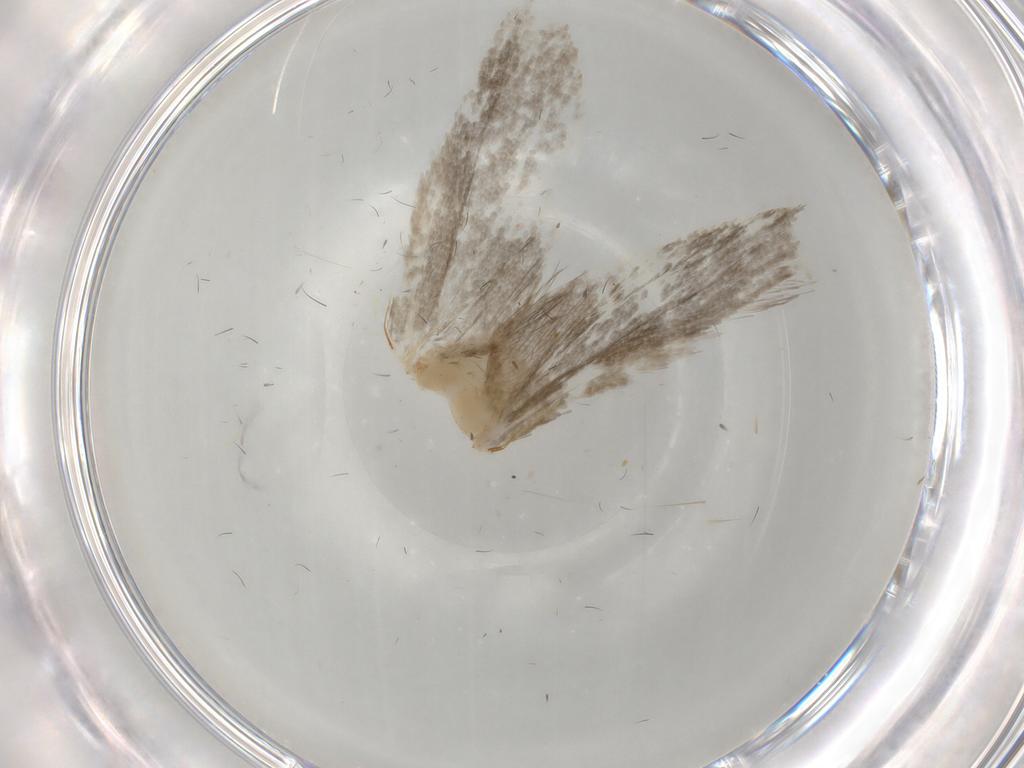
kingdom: Animalia
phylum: Arthropoda
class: Insecta
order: Lepidoptera
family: Tineidae
